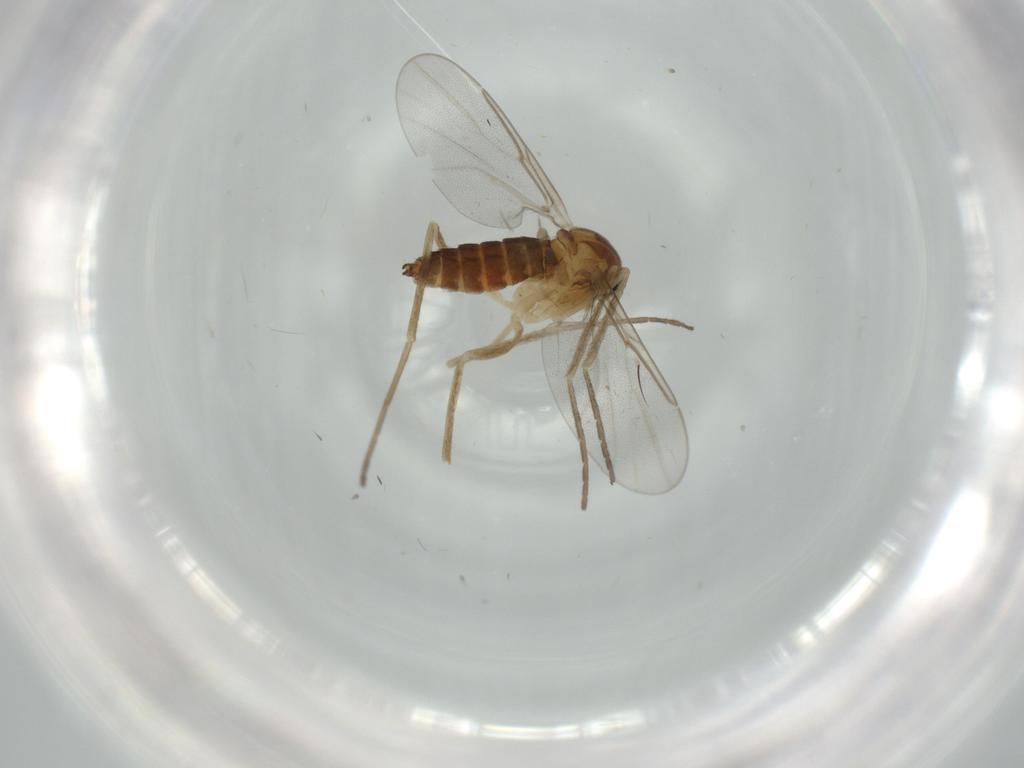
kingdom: Animalia
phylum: Arthropoda
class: Insecta
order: Diptera
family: Cecidomyiidae
